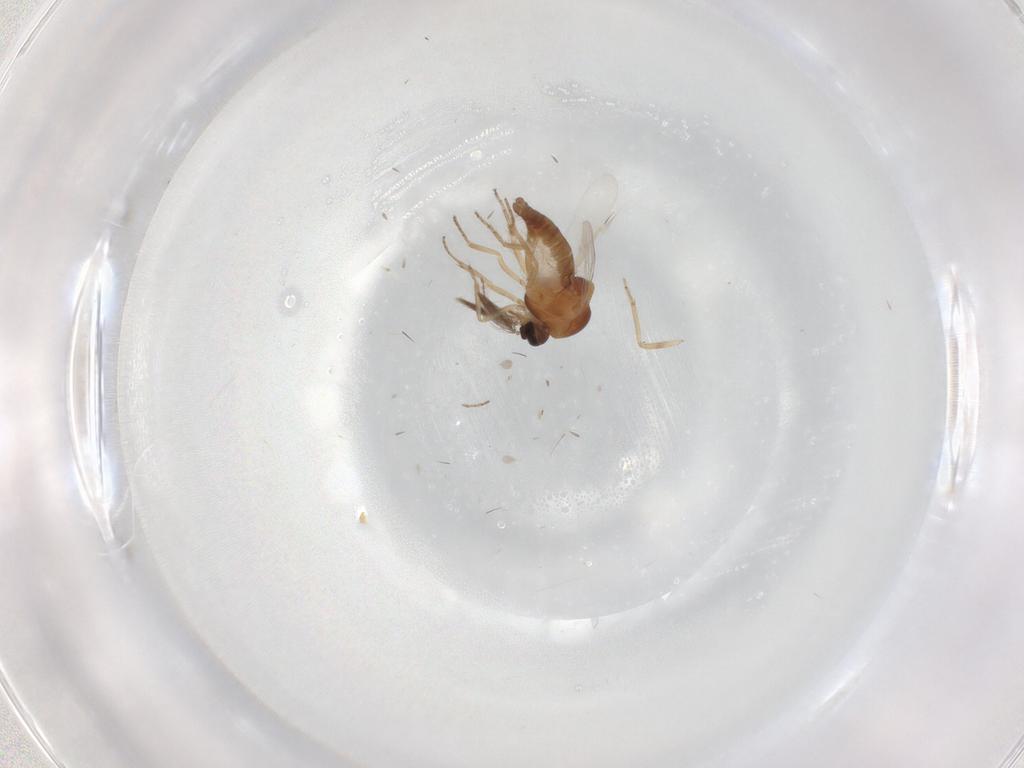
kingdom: Animalia
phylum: Arthropoda
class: Insecta
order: Diptera
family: Ceratopogonidae
